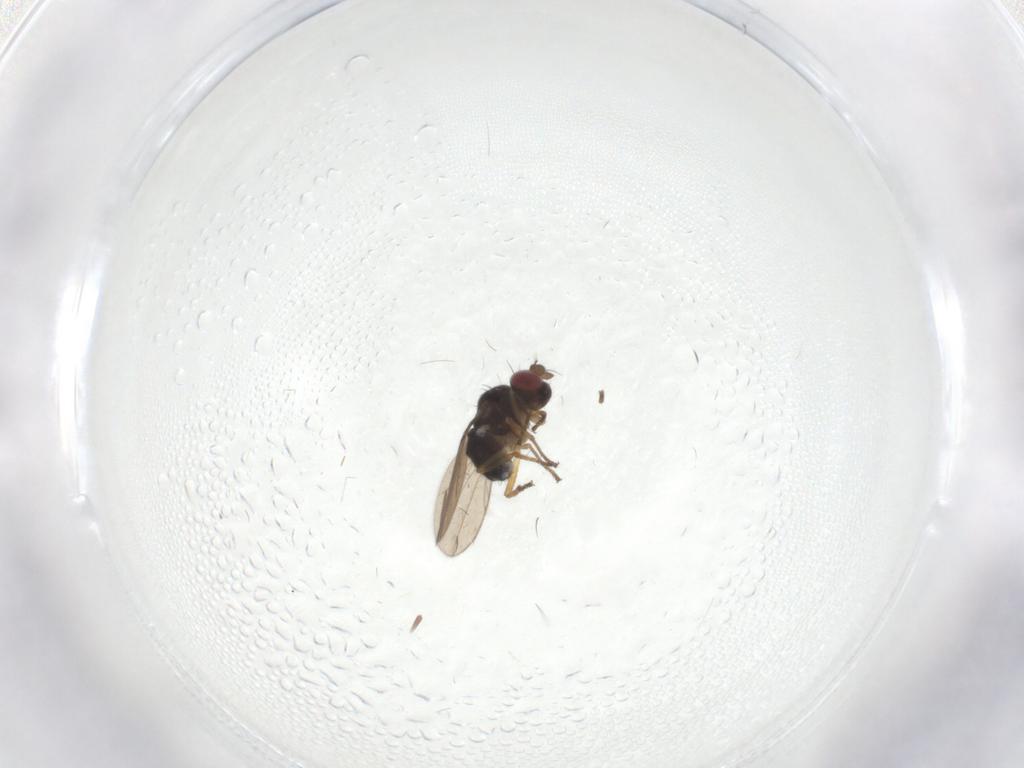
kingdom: Animalia
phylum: Arthropoda
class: Insecta
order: Diptera
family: Ephydridae
